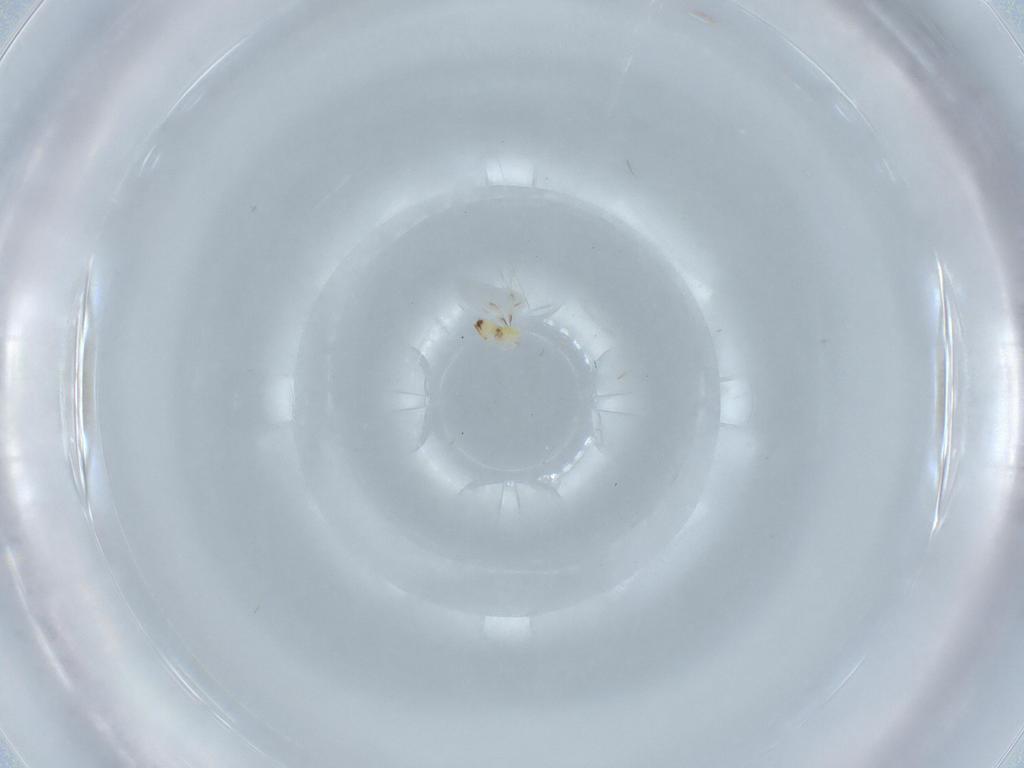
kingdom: Animalia
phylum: Arthropoda
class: Insecta
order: Hymenoptera
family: Trichogrammatidae
